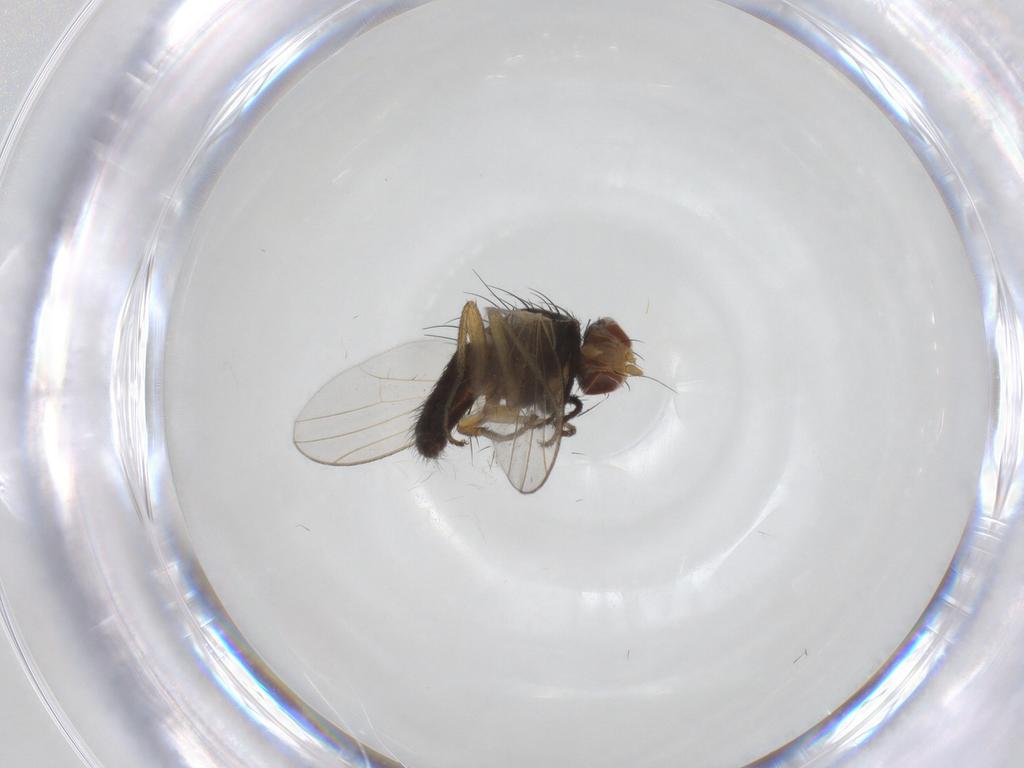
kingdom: Animalia
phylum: Arthropoda
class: Insecta
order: Diptera
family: Heleomyzidae
